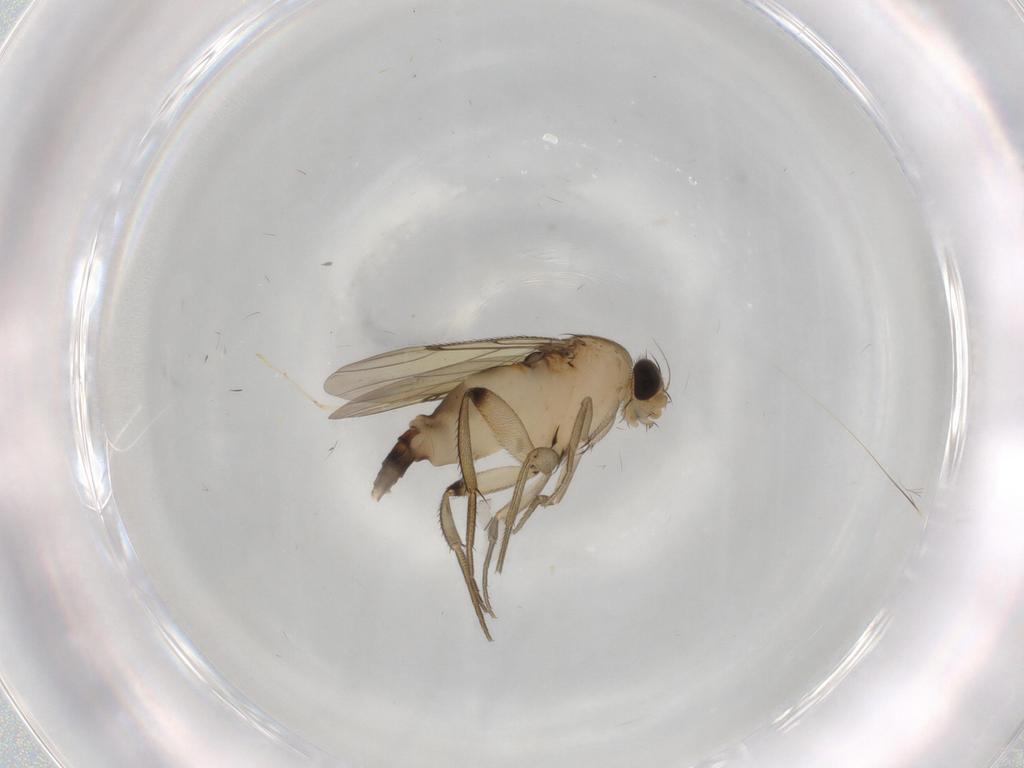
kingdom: Animalia
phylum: Arthropoda
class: Insecta
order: Diptera
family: Phoridae
